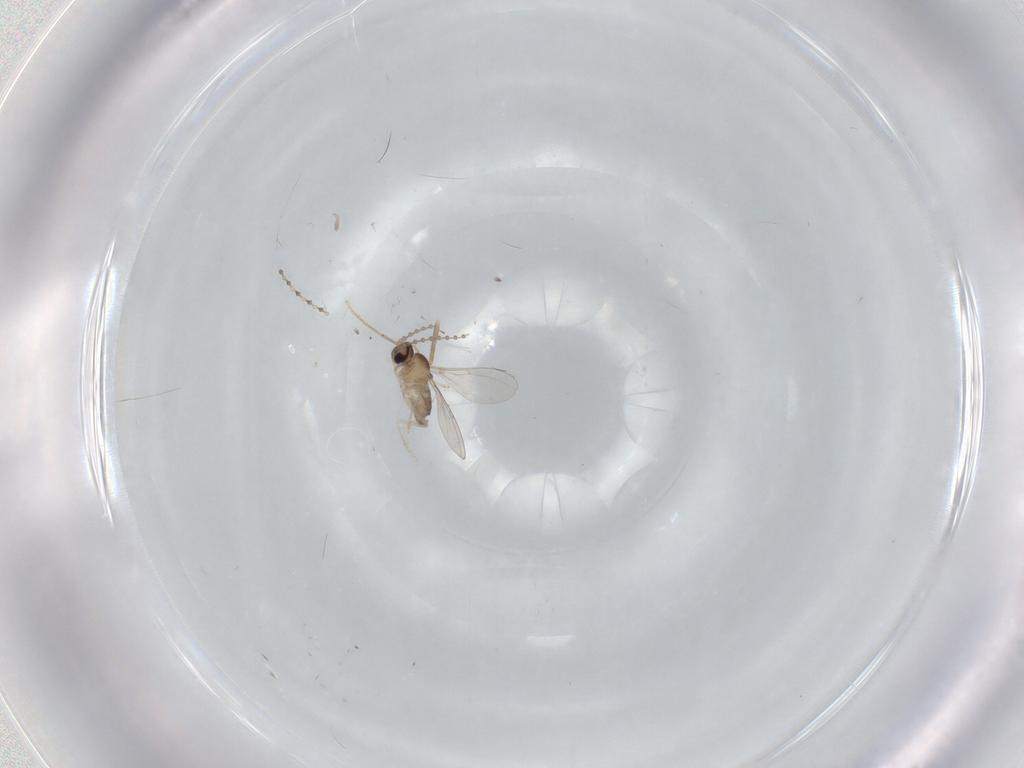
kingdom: Animalia
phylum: Arthropoda
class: Insecta
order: Diptera
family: Cecidomyiidae
